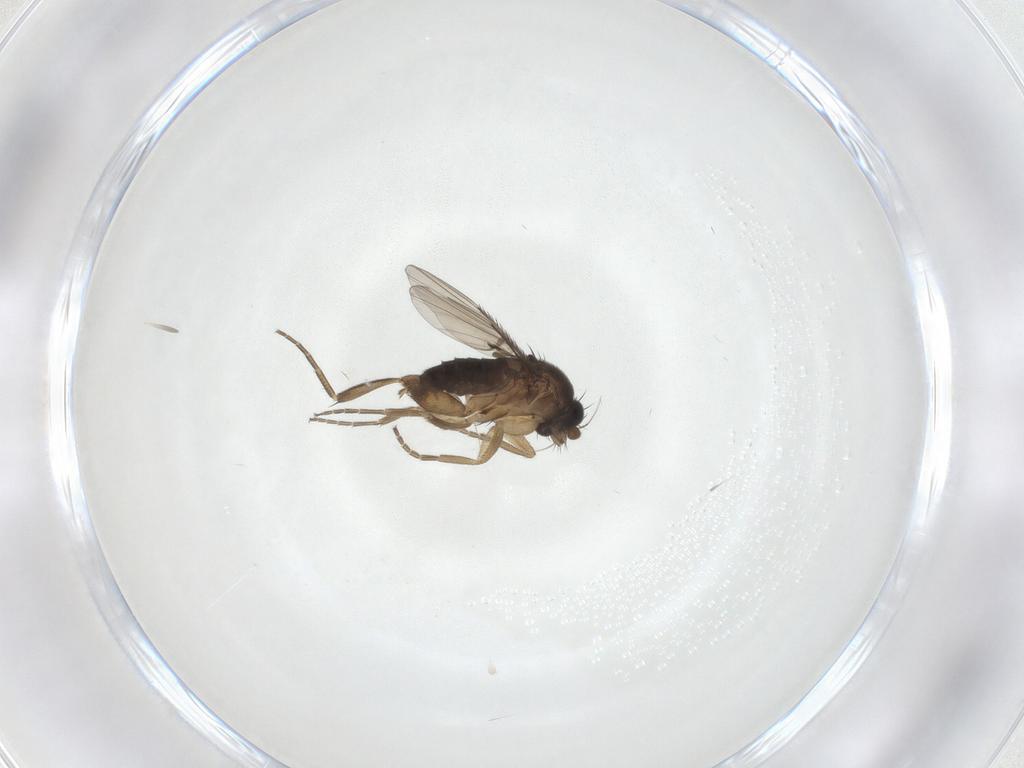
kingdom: Animalia
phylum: Arthropoda
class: Insecta
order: Diptera
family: Phoridae
